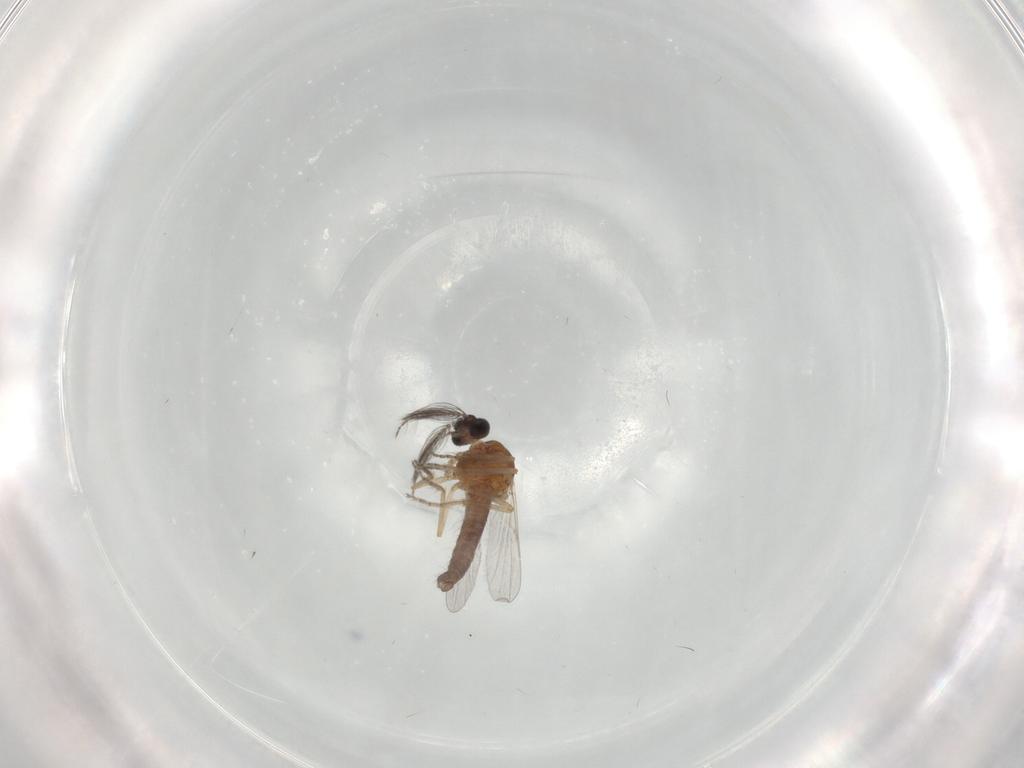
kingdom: Animalia
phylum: Arthropoda
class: Insecta
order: Diptera
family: Ceratopogonidae
